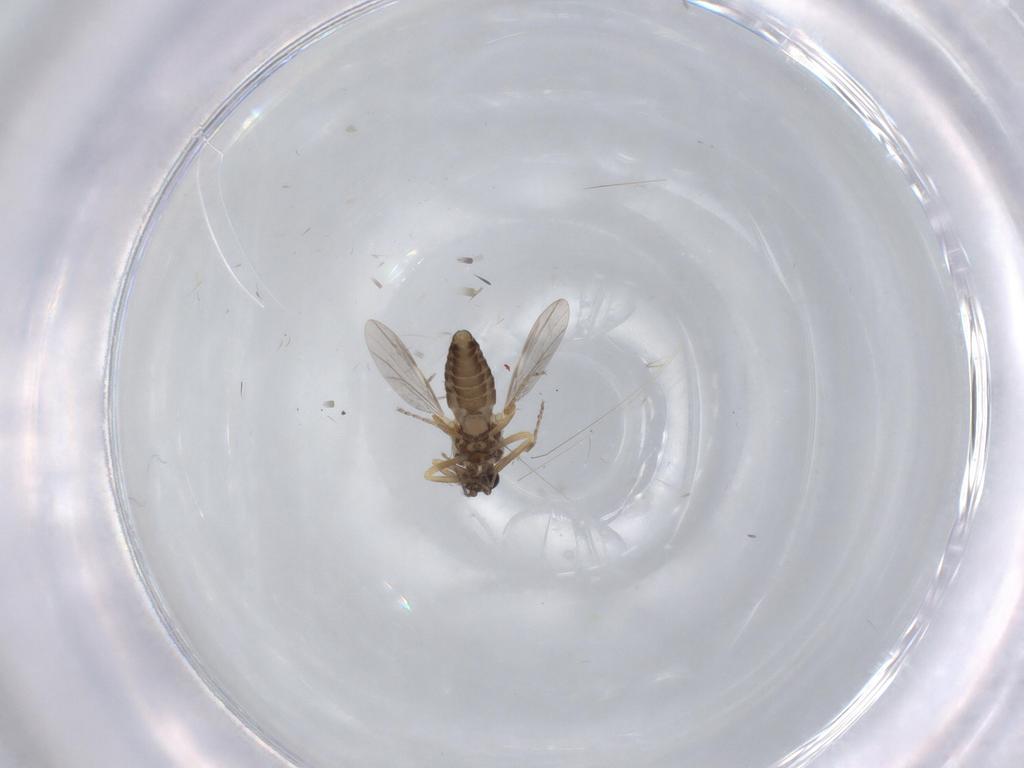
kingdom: Animalia
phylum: Arthropoda
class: Insecta
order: Diptera
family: Ceratopogonidae
